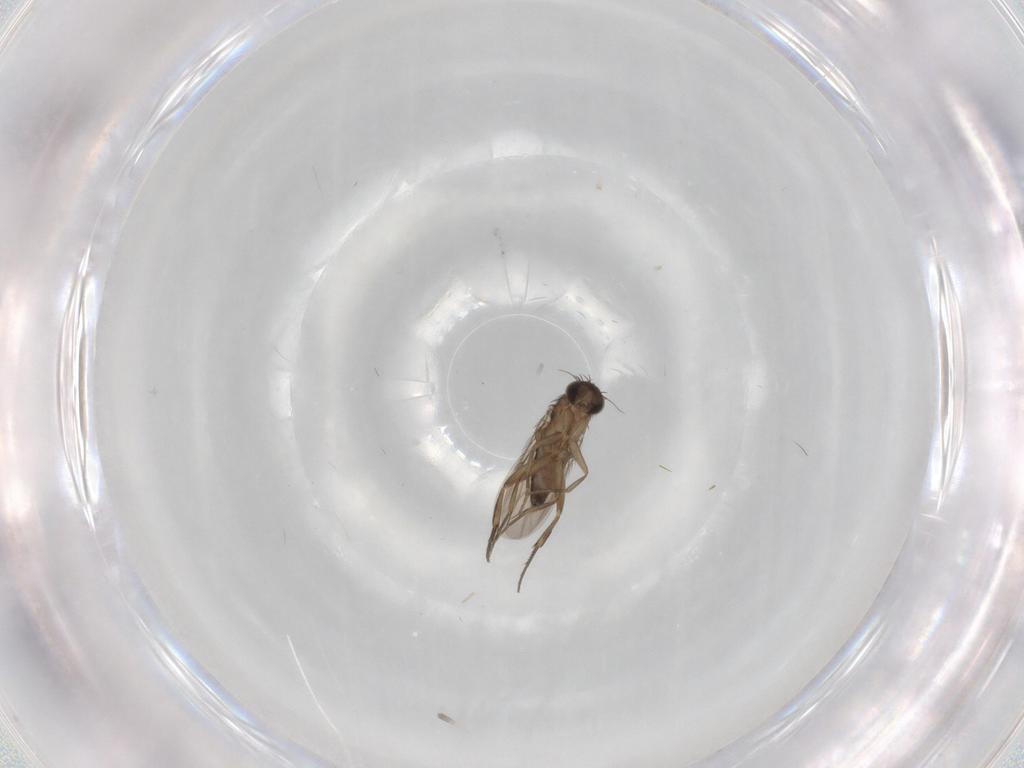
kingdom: Animalia
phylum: Arthropoda
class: Insecta
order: Diptera
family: Phoridae
